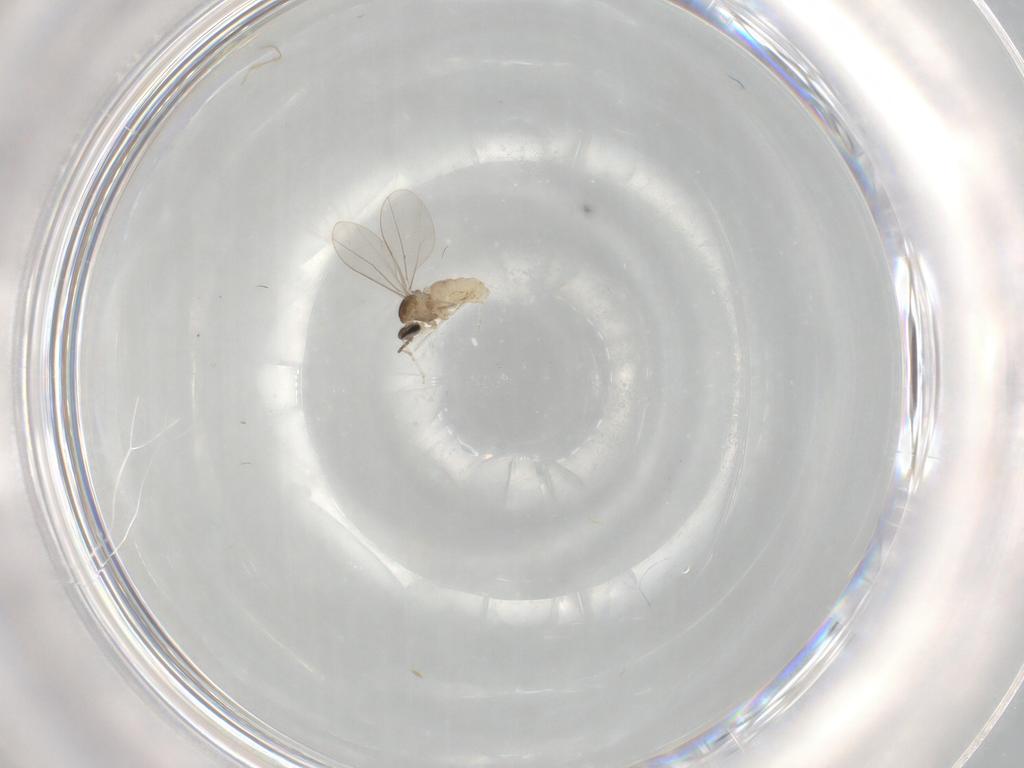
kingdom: Animalia
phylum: Arthropoda
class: Insecta
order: Diptera
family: Cecidomyiidae
